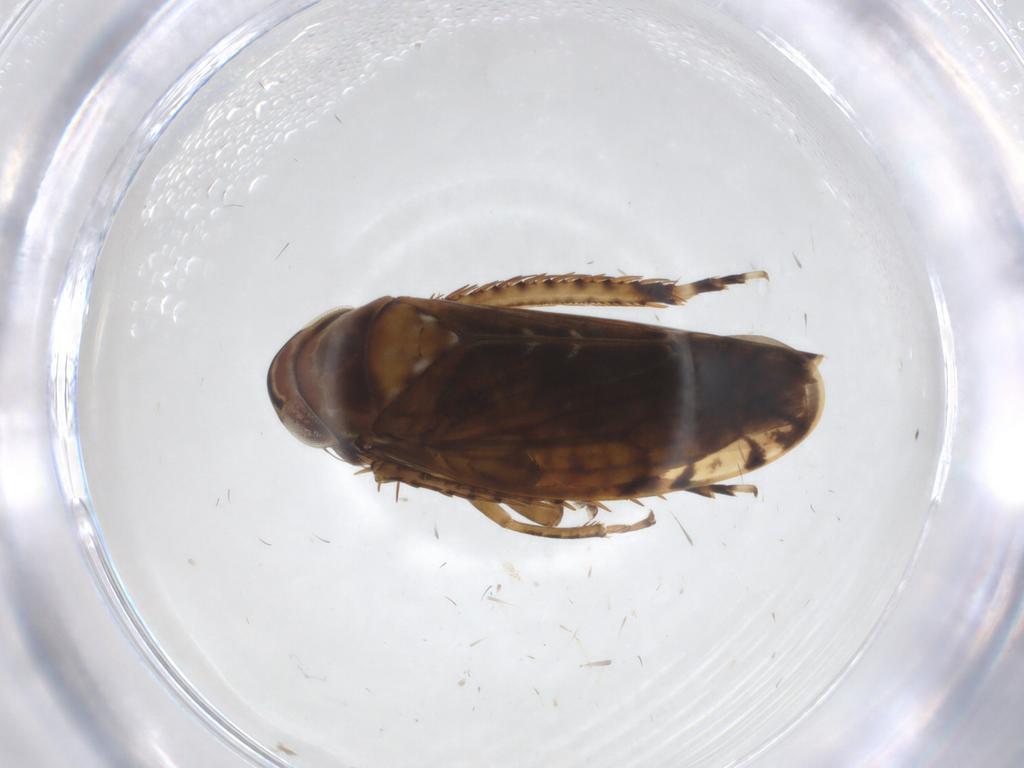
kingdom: Animalia
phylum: Arthropoda
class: Insecta
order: Hemiptera
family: Cicadellidae
